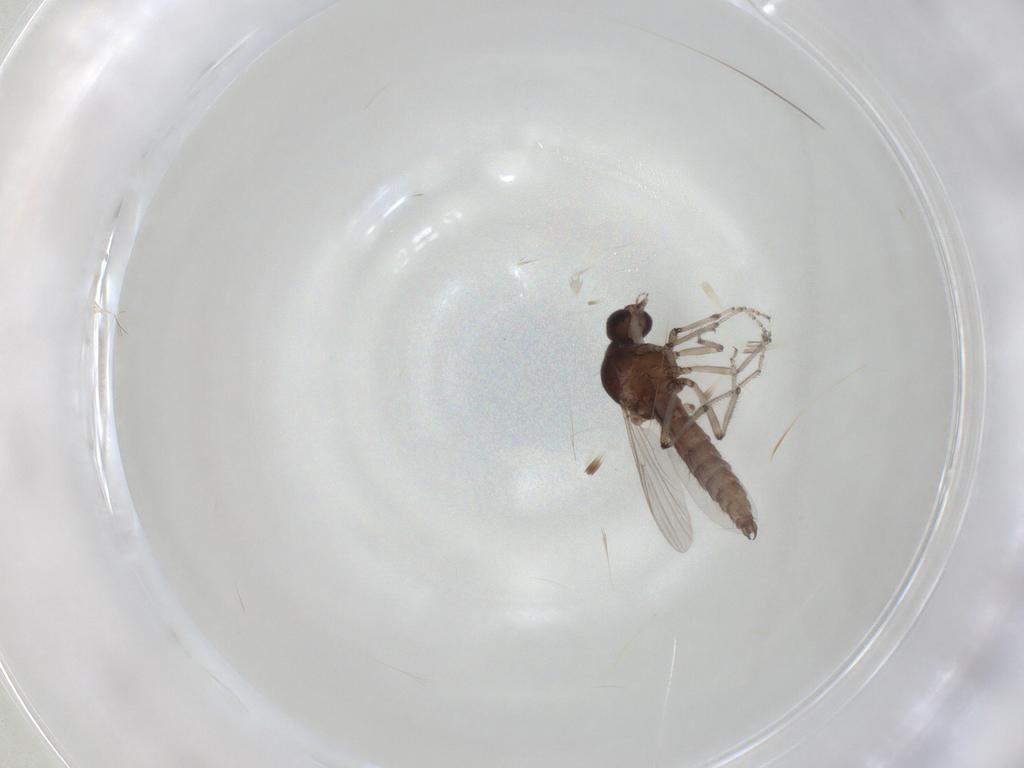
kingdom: Animalia
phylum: Arthropoda
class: Insecta
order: Diptera
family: Ceratopogonidae
